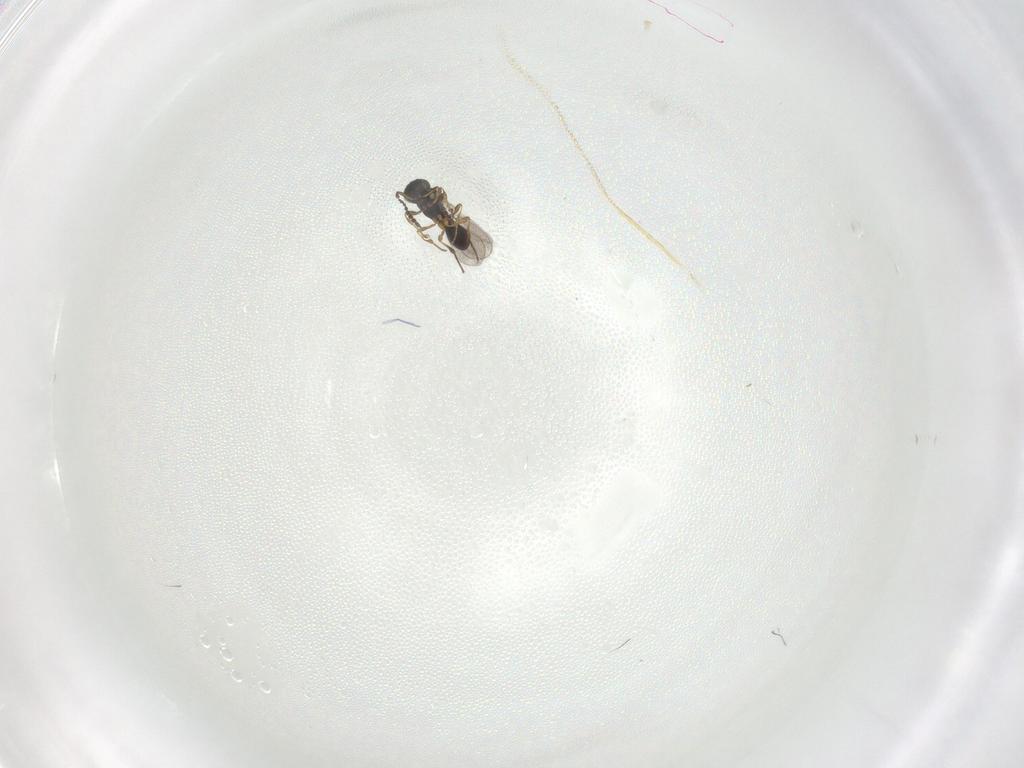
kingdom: Animalia
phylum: Arthropoda
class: Insecta
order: Hymenoptera
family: Platygastridae
